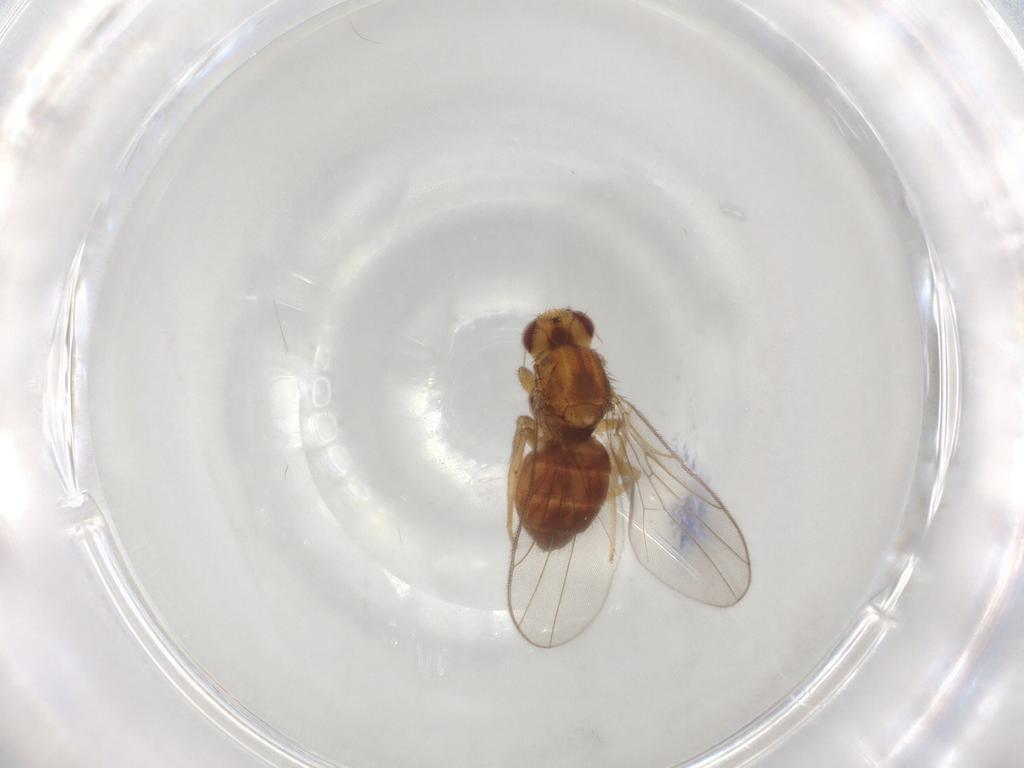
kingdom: Animalia
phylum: Arthropoda
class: Insecta
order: Diptera
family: Chloropidae
